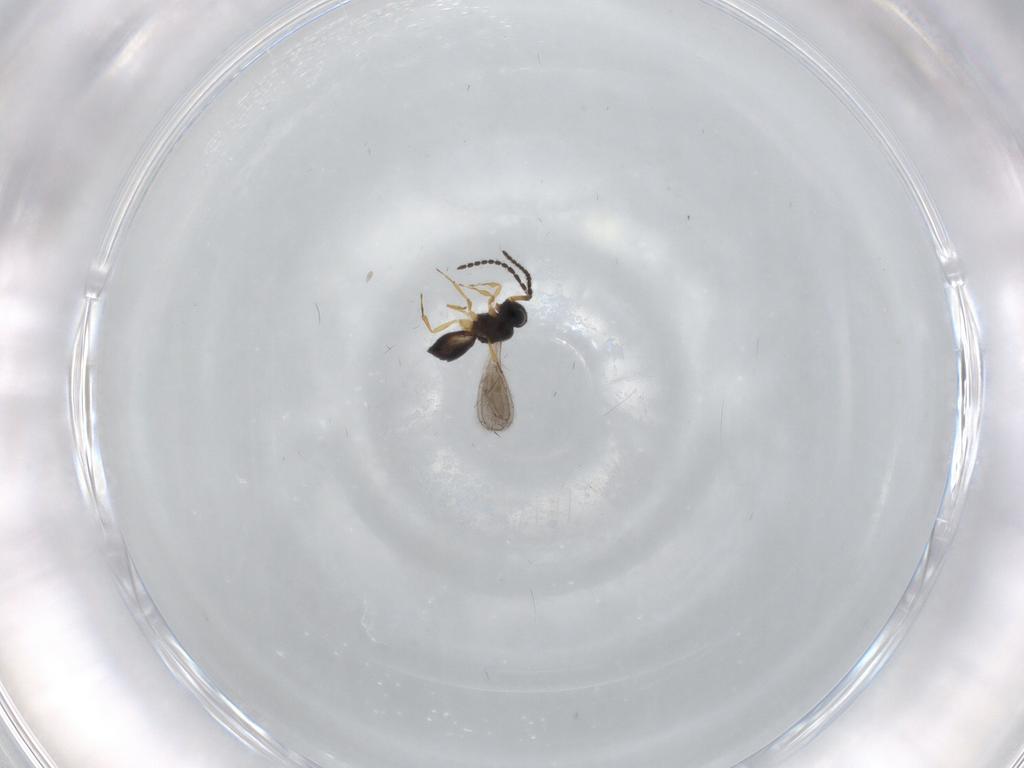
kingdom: Animalia
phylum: Arthropoda
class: Insecta
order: Hymenoptera
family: Scelionidae
